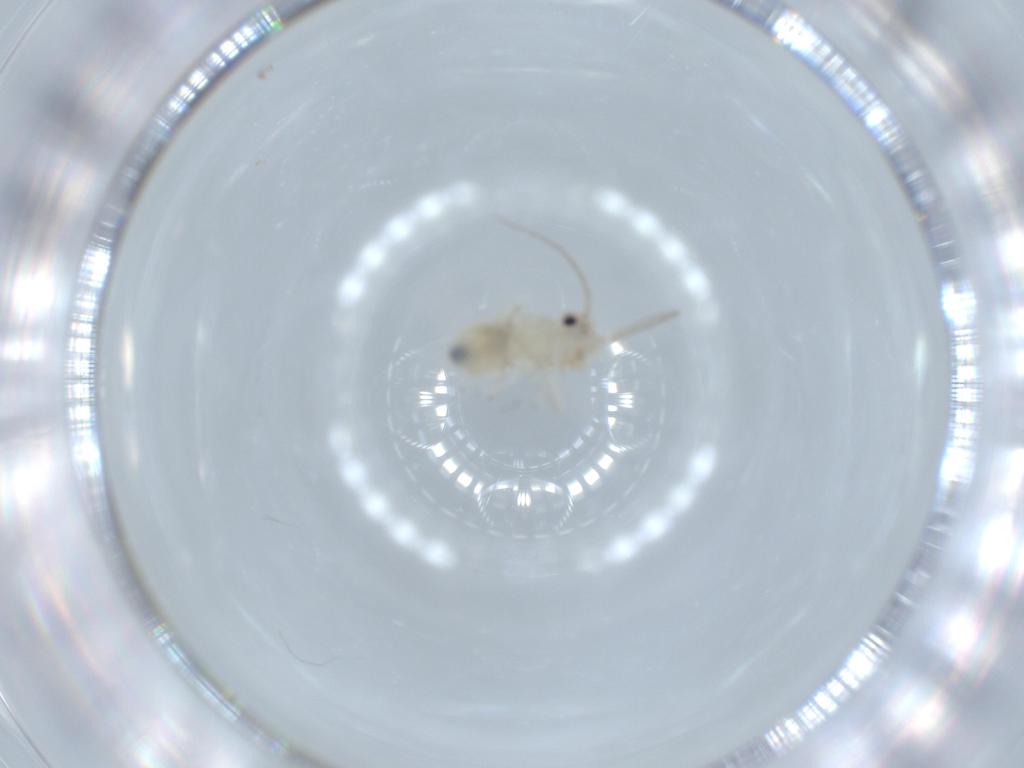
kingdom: Animalia
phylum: Arthropoda
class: Insecta
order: Psocodea
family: Caeciliusidae
